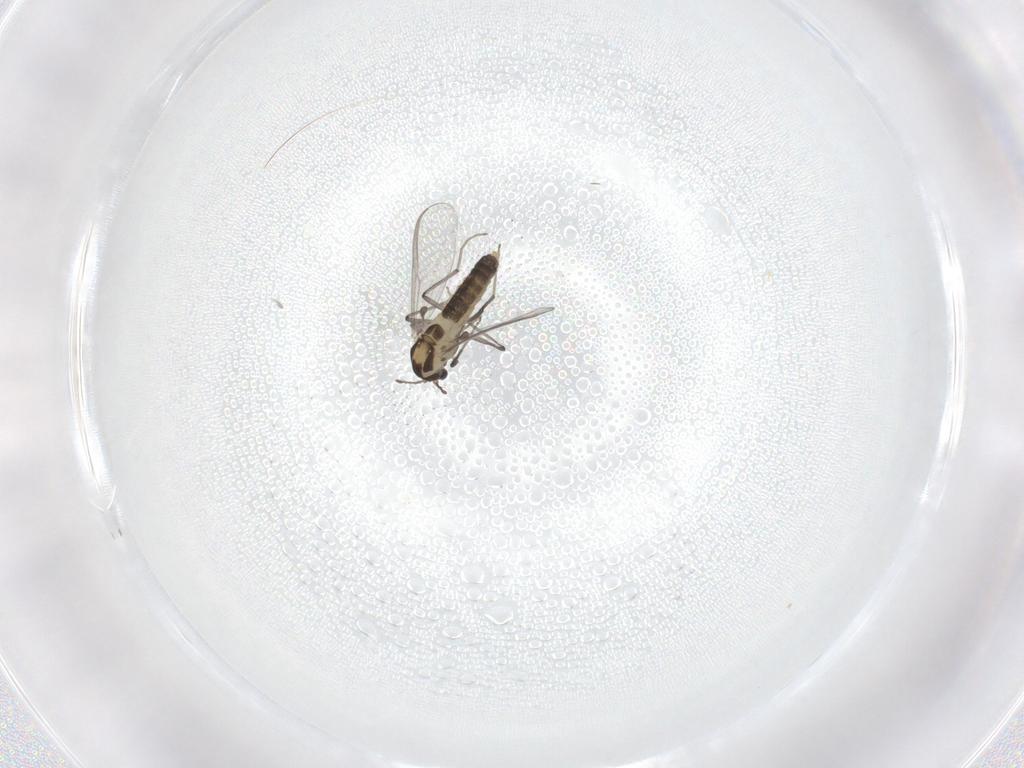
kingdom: Animalia
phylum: Arthropoda
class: Insecta
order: Diptera
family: Chironomidae
